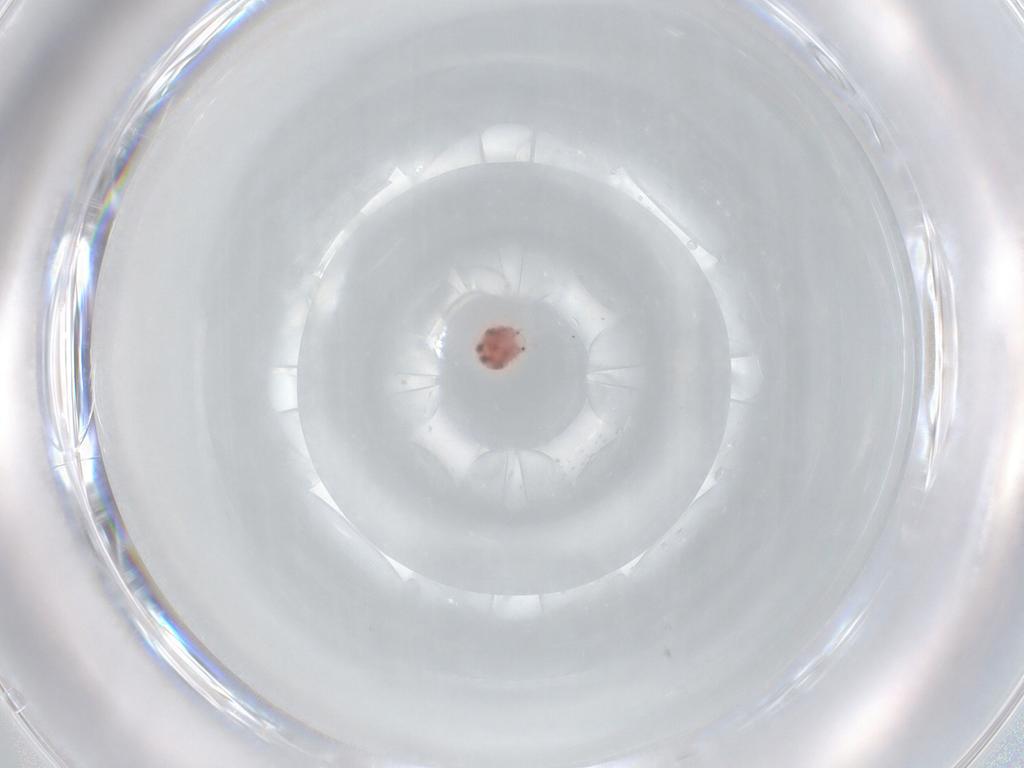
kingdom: Animalia
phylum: Arthropoda
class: Arachnida
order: Trombidiformes
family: Pionidae
